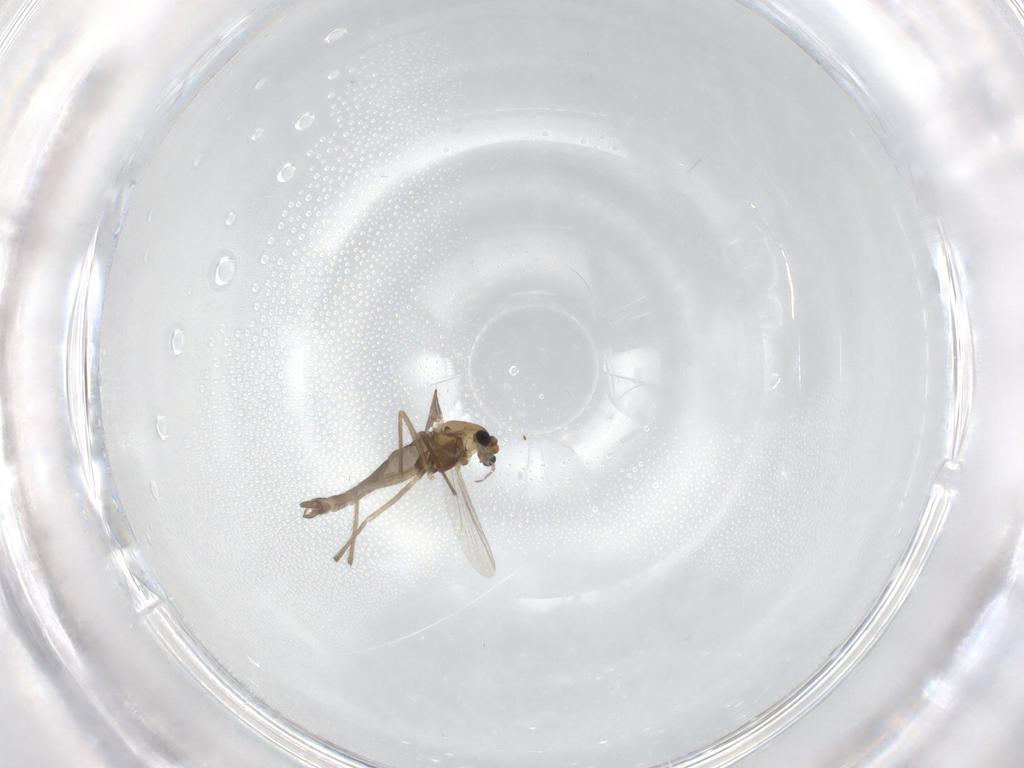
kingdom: Animalia
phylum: Arthropoda
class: Insecta
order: Diptera
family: Chironomidae
